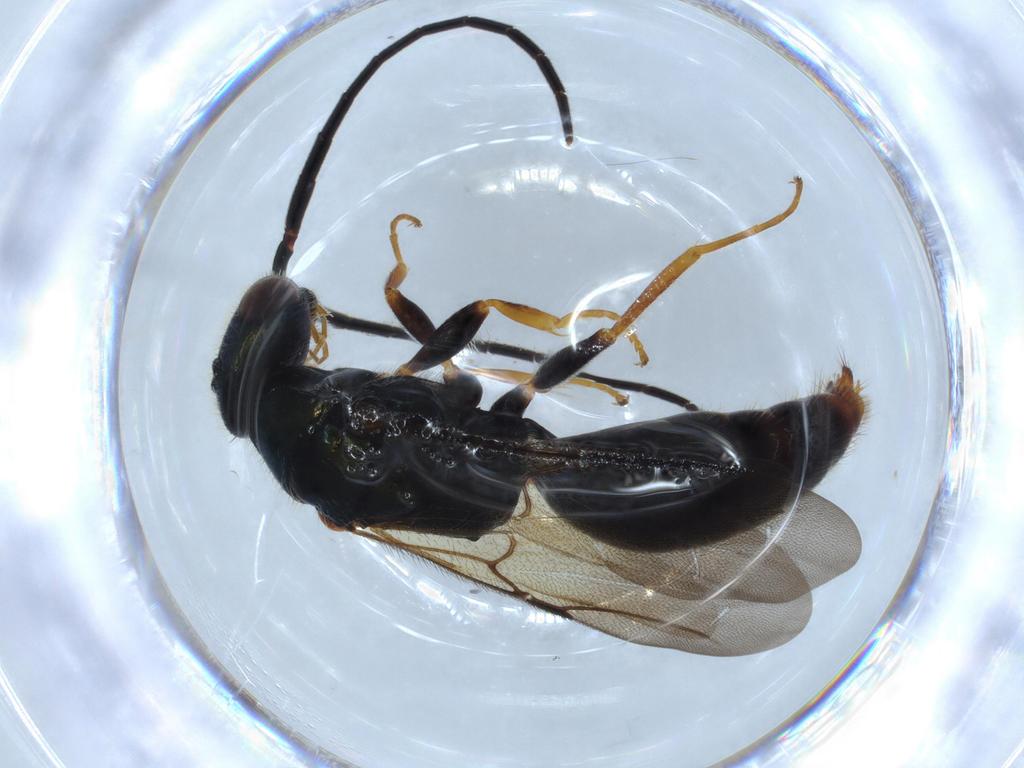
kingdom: Animalia
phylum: Arthropoda
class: Insecta
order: Hymenoptera
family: Bethylidae
